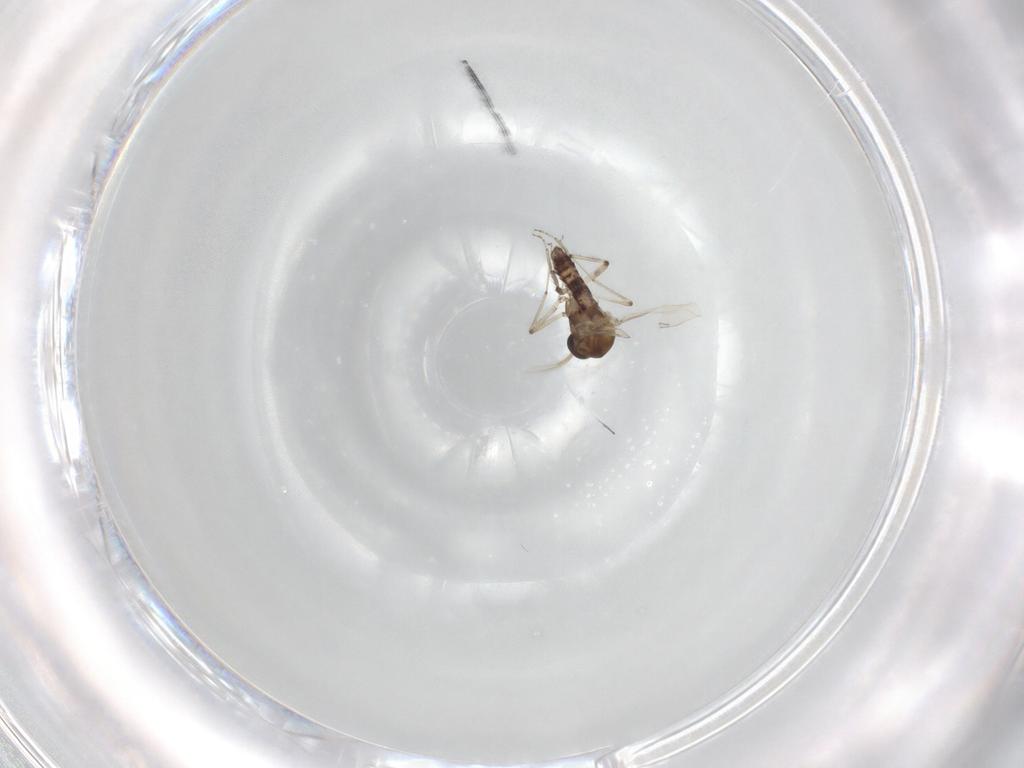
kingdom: Animalia
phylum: Arthropoda
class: Insecta
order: Diptera
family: Ceratopogonidae
